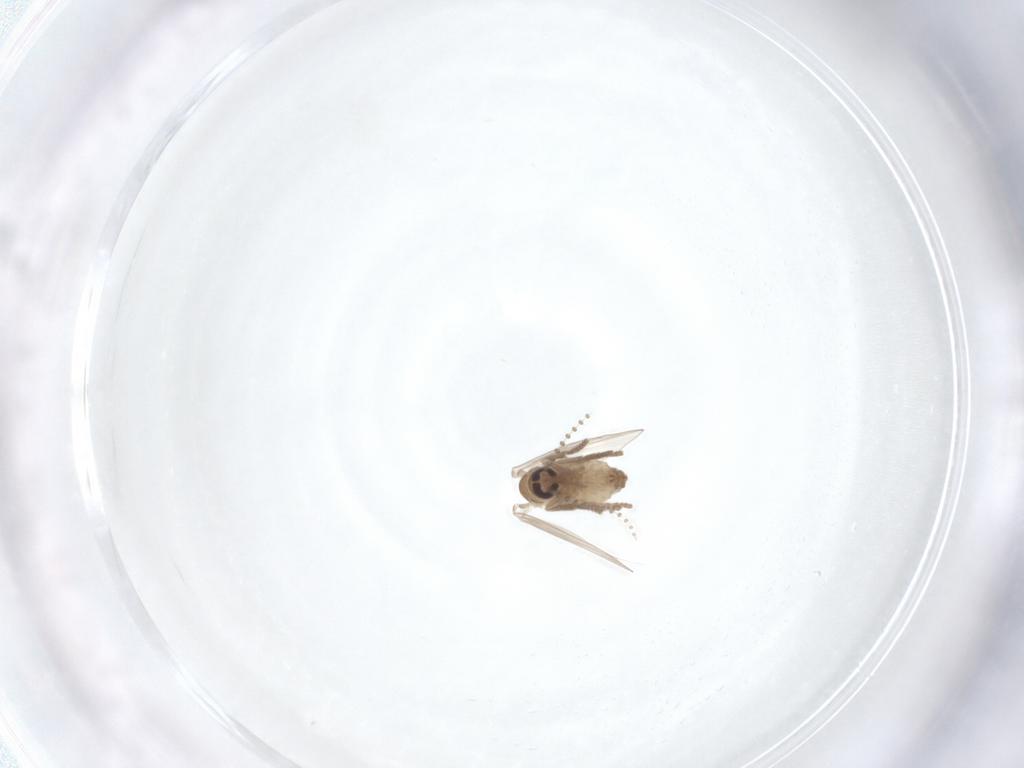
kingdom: Animalia
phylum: Arthropoda
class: Insecta
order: Diptera
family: Psychodidae
